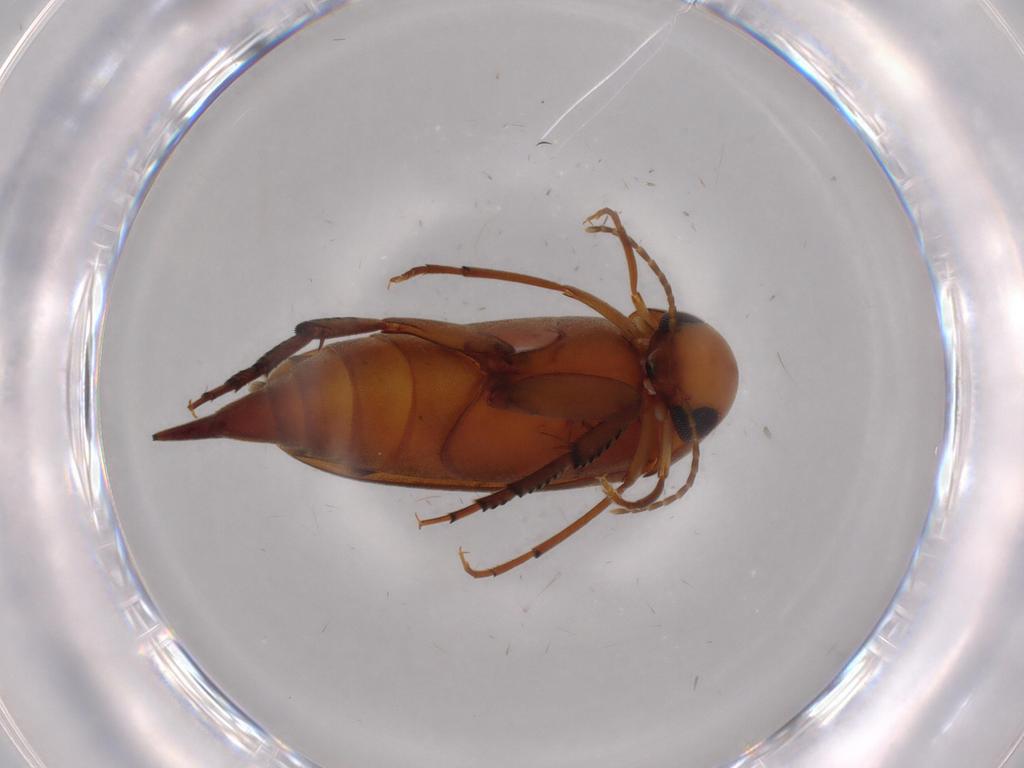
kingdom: Animalia
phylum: Arthropoda
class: Insecta
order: Coleoptera
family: Mordellidae
